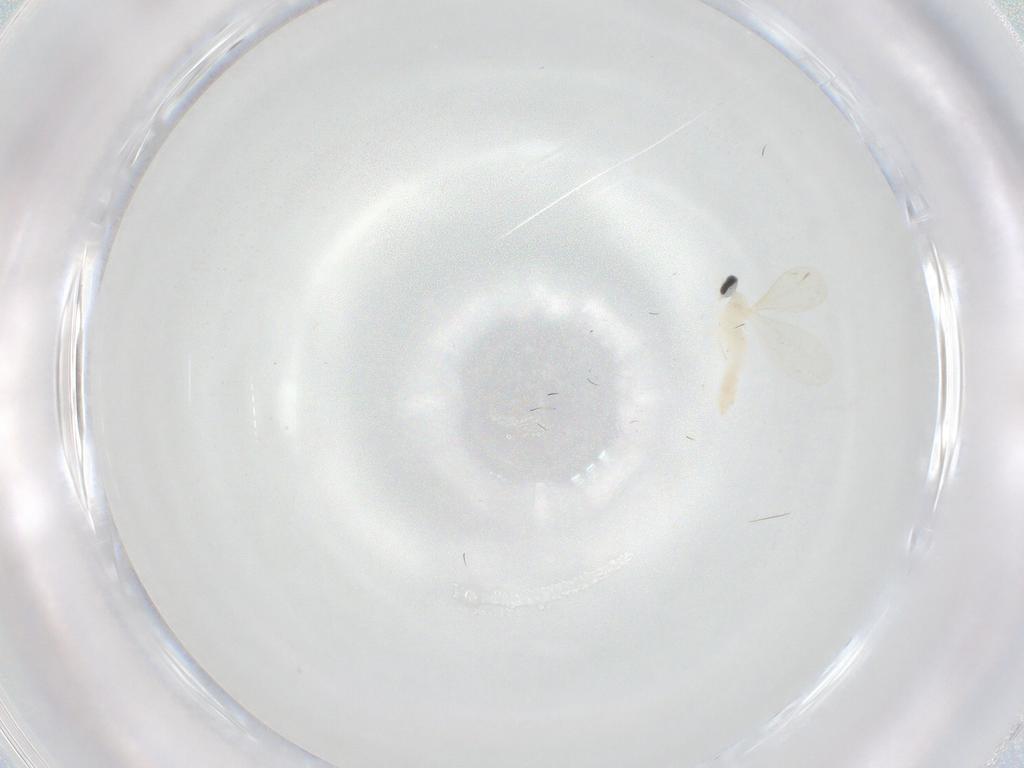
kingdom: Animalia
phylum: Arthropoda
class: Insecta
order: Diptera
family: Cecidomyiidae
